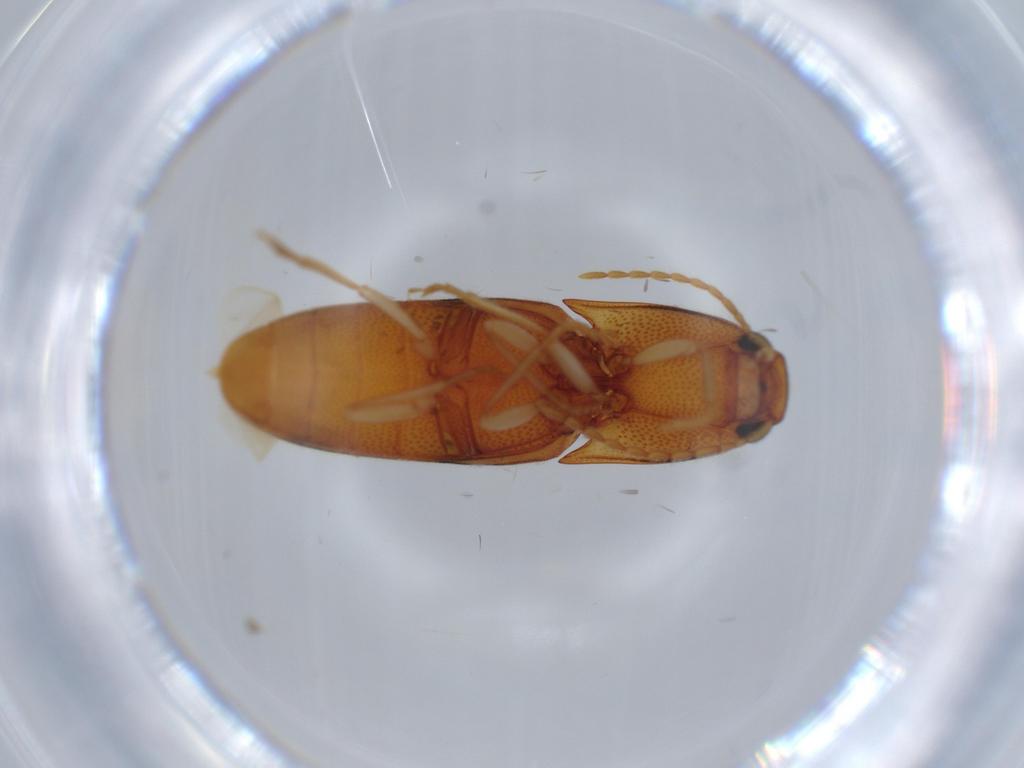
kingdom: Animalia
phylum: Arthropoda
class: Insecta
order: Coleoptera
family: Elateridae
